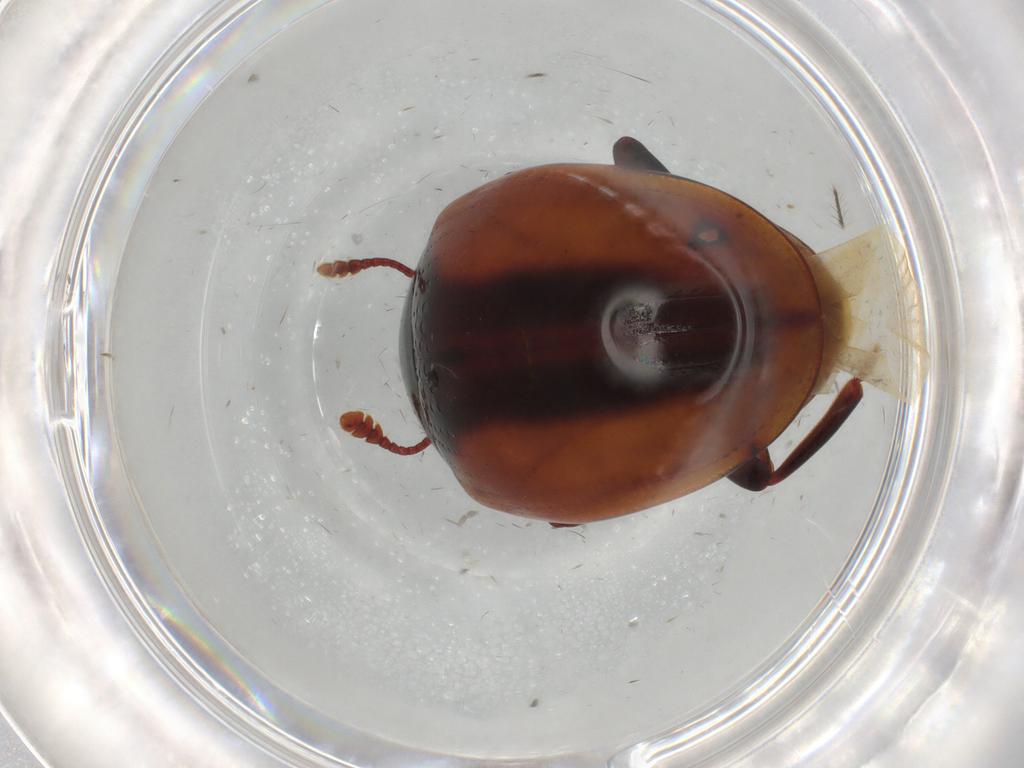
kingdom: Animalia
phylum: Arthropoda
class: Insecta
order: Coleoptera
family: Zopheridae
